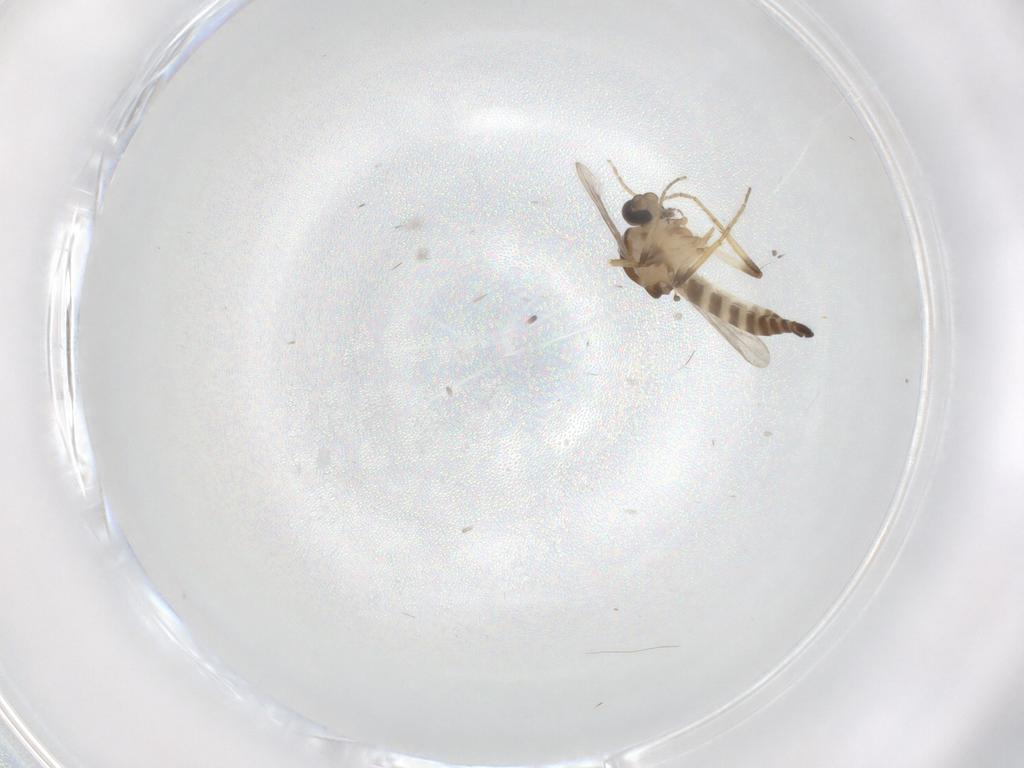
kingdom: Animalia
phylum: Arthropoda
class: Insecta
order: Diptera
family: Ceratopogonidae
